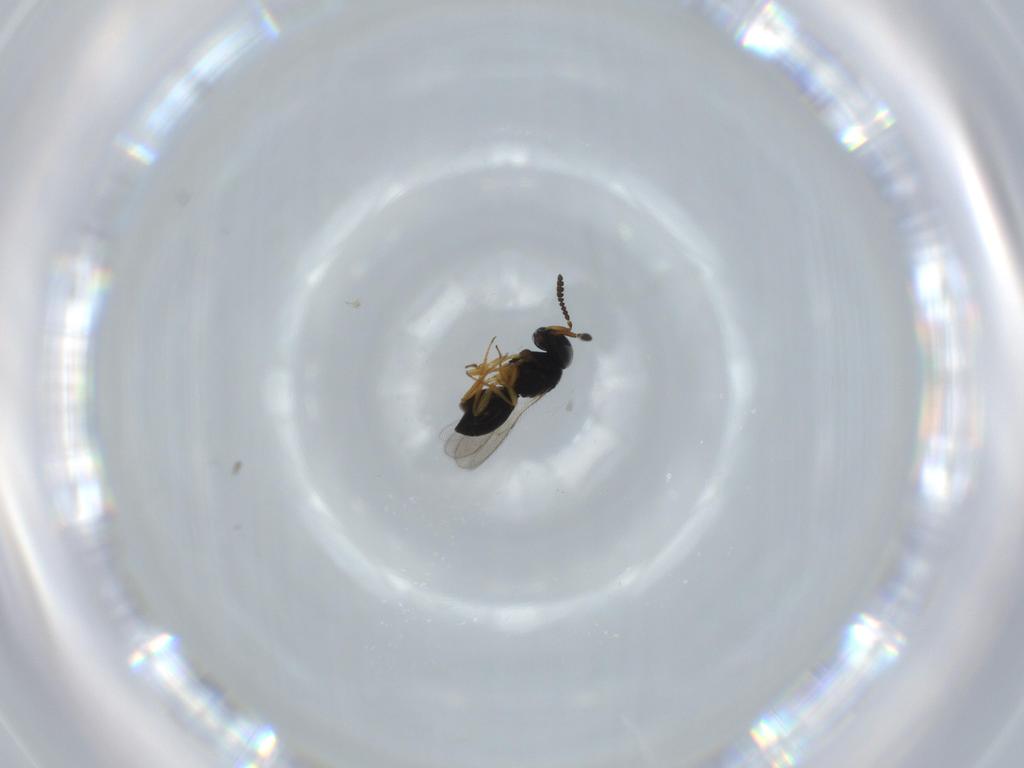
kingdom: Animalia
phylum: Arthropoda
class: Insecta
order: Hymenoptera
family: Scelionidae
